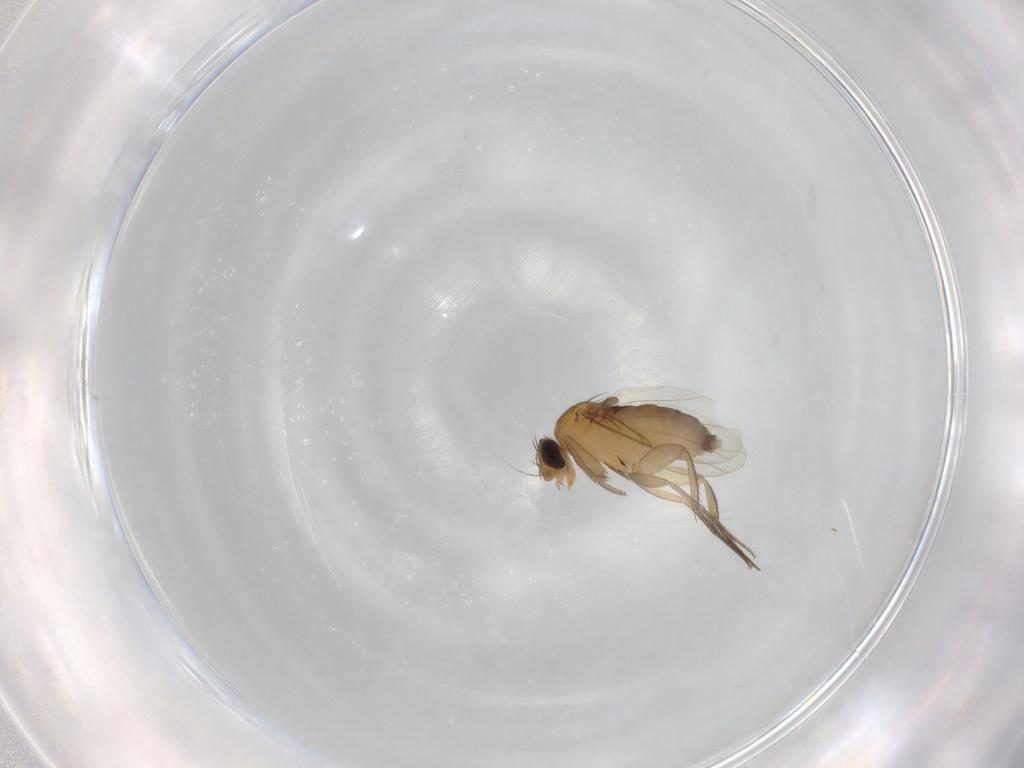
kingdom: Animalia
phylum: Arthropoda
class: Insecta
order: Diptera
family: Phoridae
